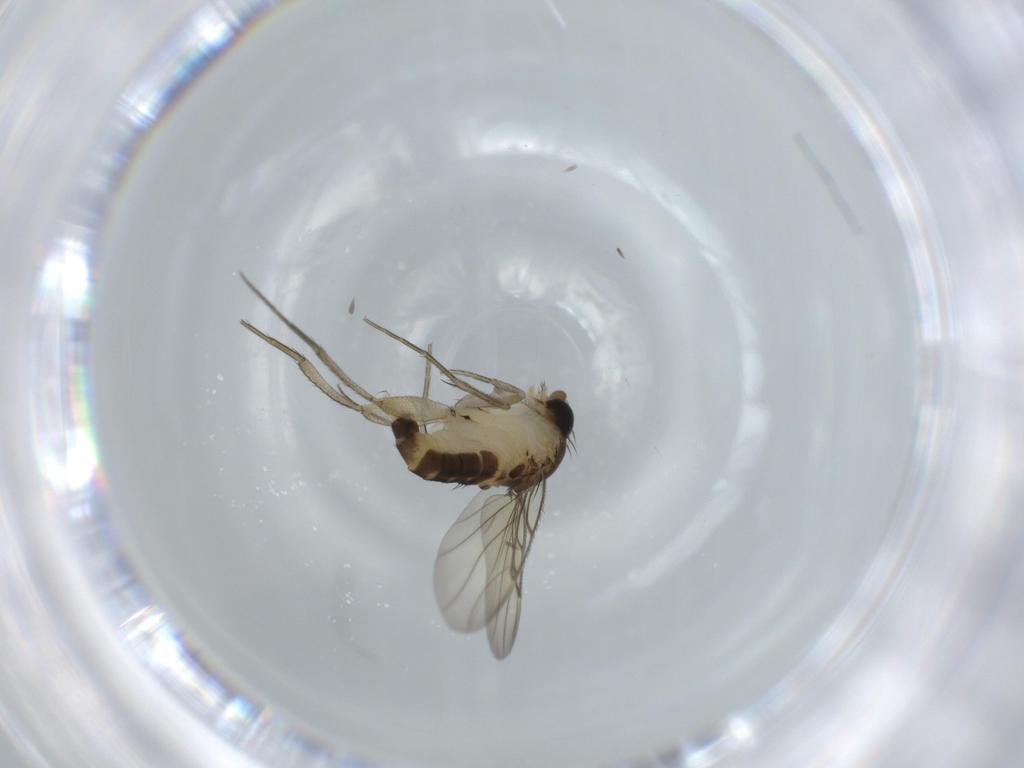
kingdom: Animalia
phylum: Arthropoda
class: Insecta
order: Diptera
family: Phoridae
